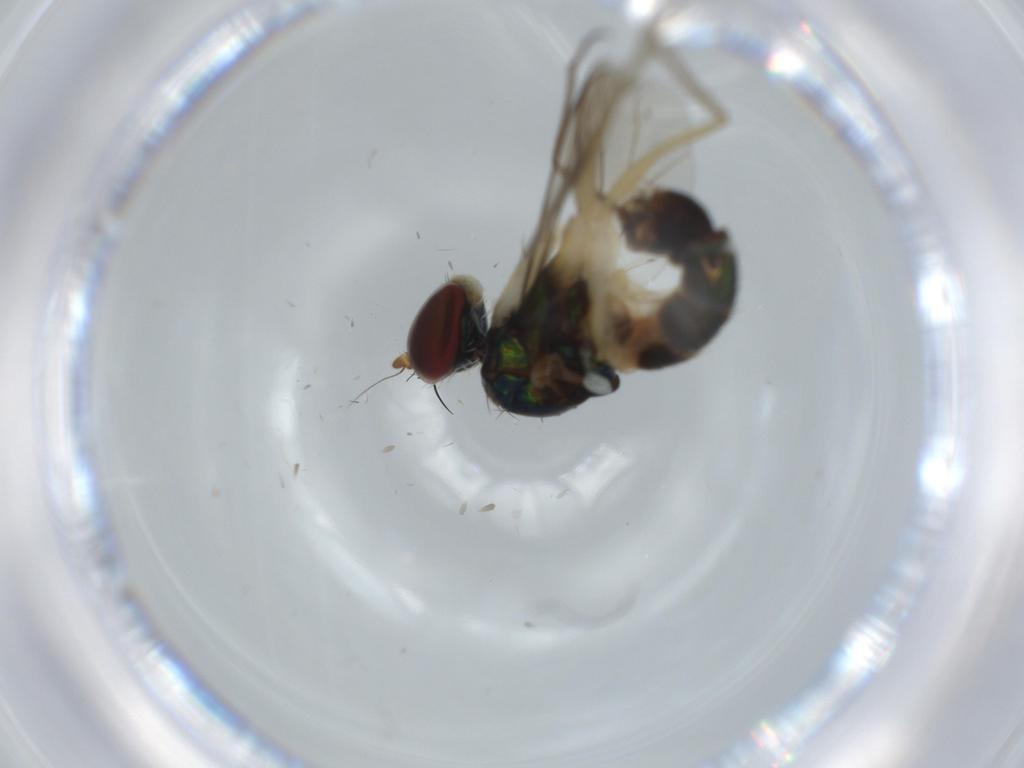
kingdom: Animalia
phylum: Arthropoda
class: Insecta
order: Diptera
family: Dolichopodidae
